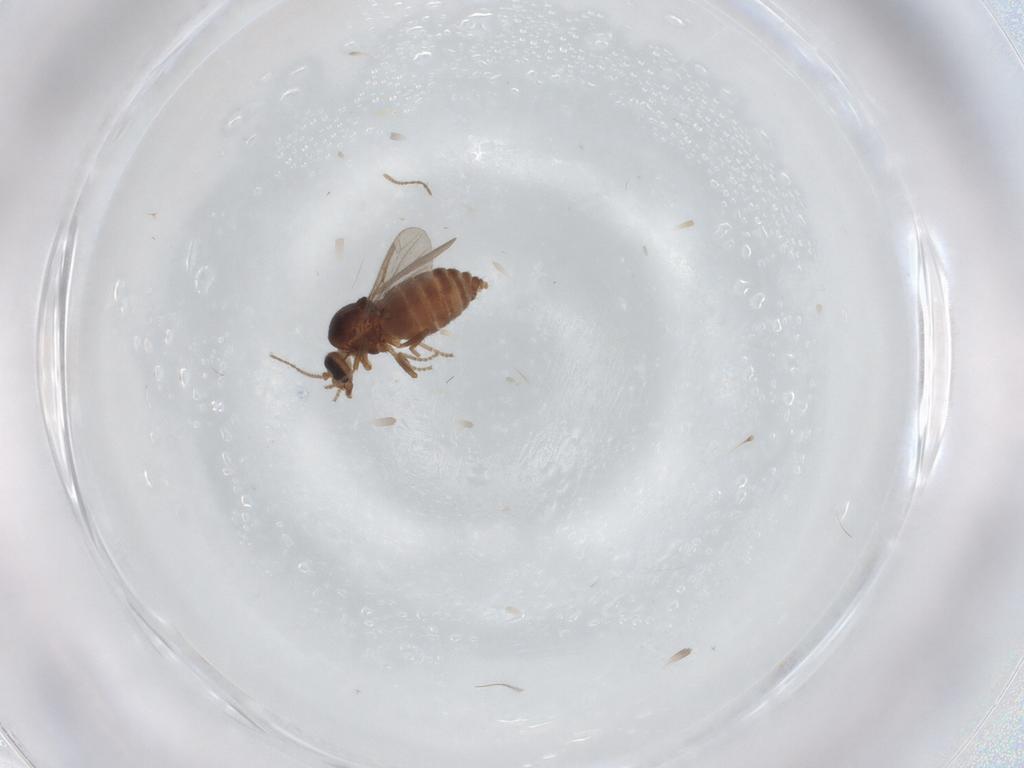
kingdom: Animalia
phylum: Arthropoda
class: Insecta
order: Diptera
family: Ceratopogonidae
